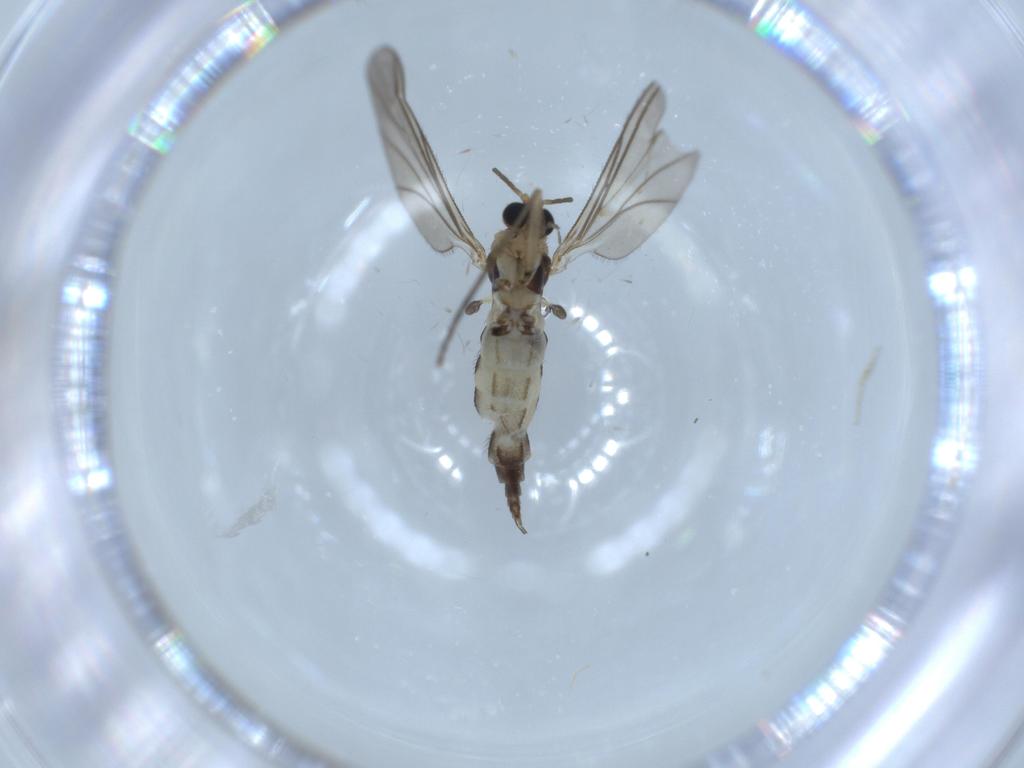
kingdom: Animalia
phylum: Arthropoda
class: Insecta
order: Diptera
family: Sciaridae
